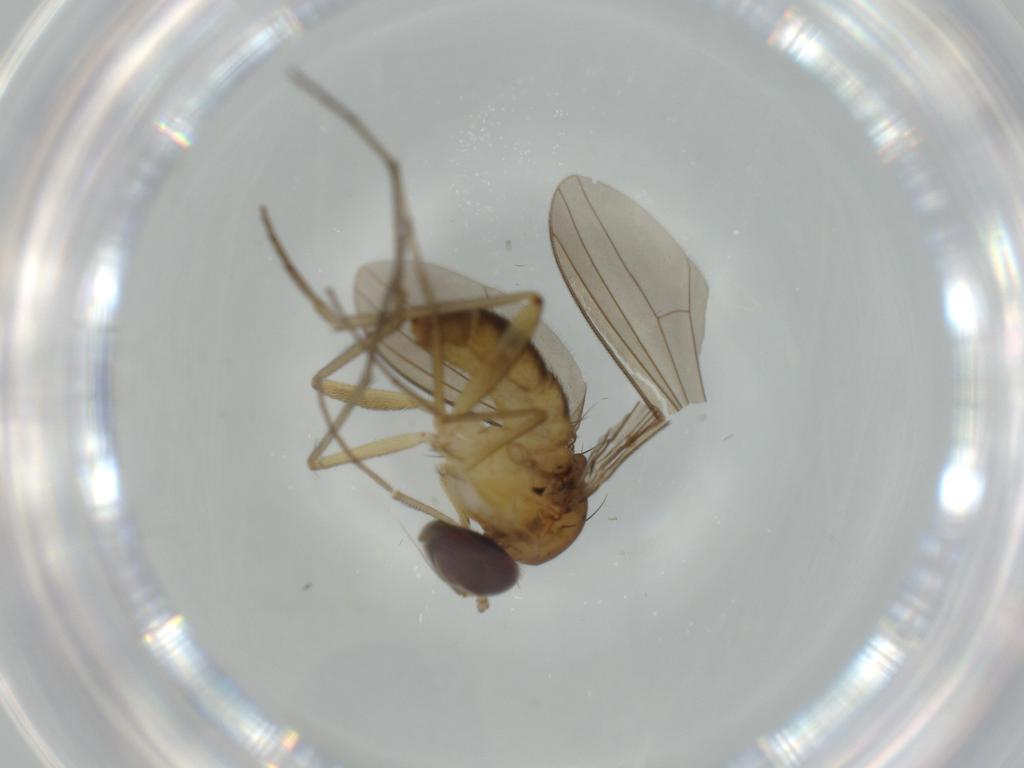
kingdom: Animalia
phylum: Arthropoda
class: Insecta
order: Diptera
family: Dolichopodidae
